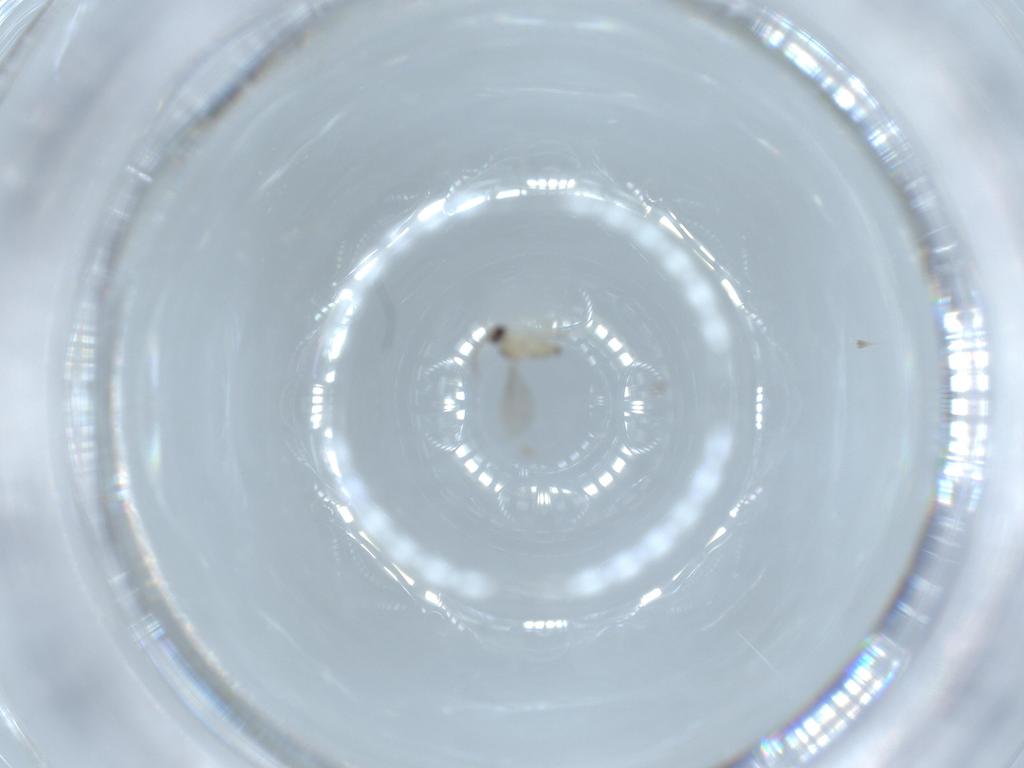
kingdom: Animalia
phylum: Arthropoda
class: Insecta
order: Diptera
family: Cecidomyiidae
